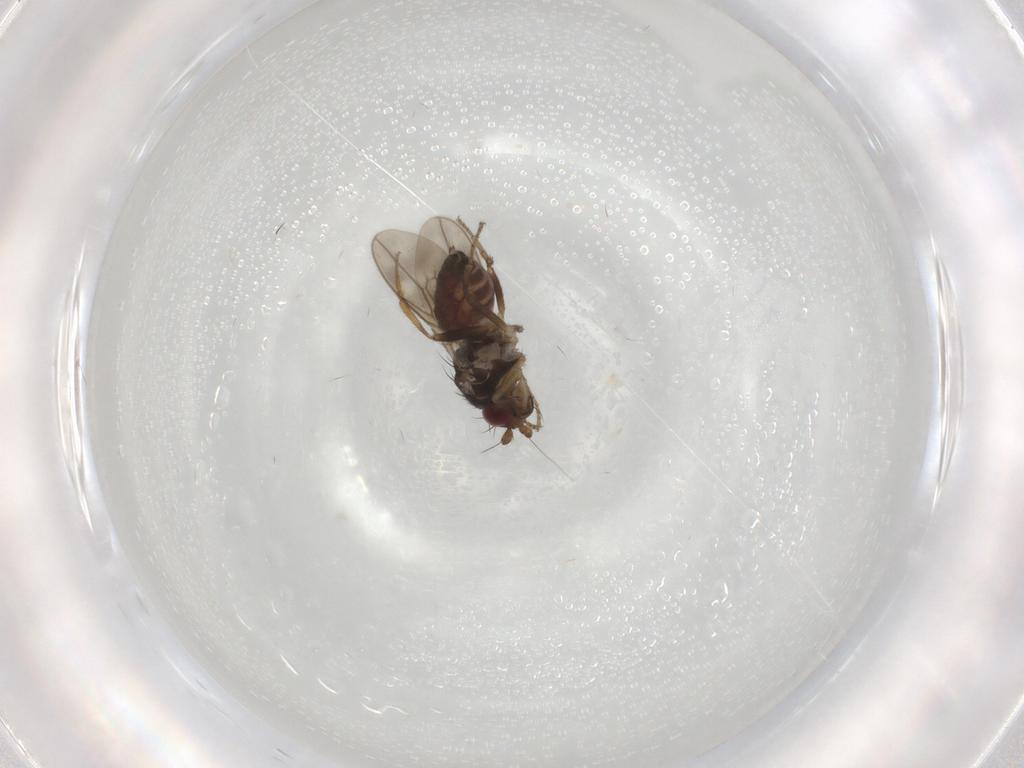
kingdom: Animalia
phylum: Arthropoda
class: Insecta
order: Diptera
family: Sphaeroceridae
